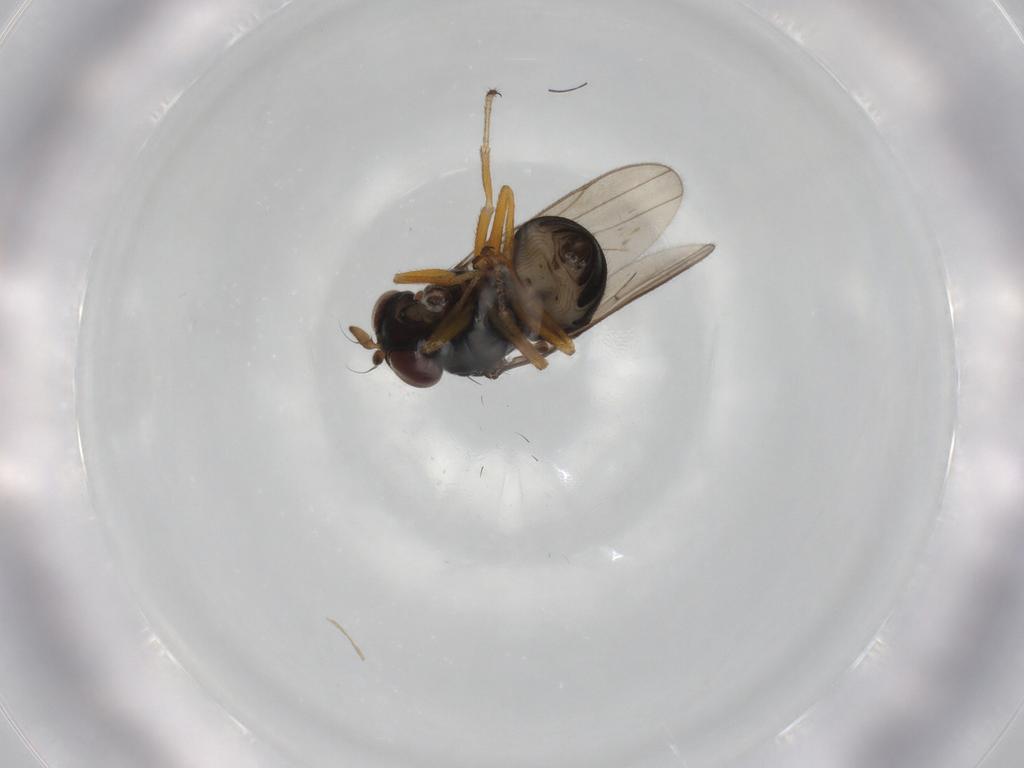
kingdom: Animalia
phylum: Arthropoda
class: Insecta
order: Diptera
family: Ephydridae
